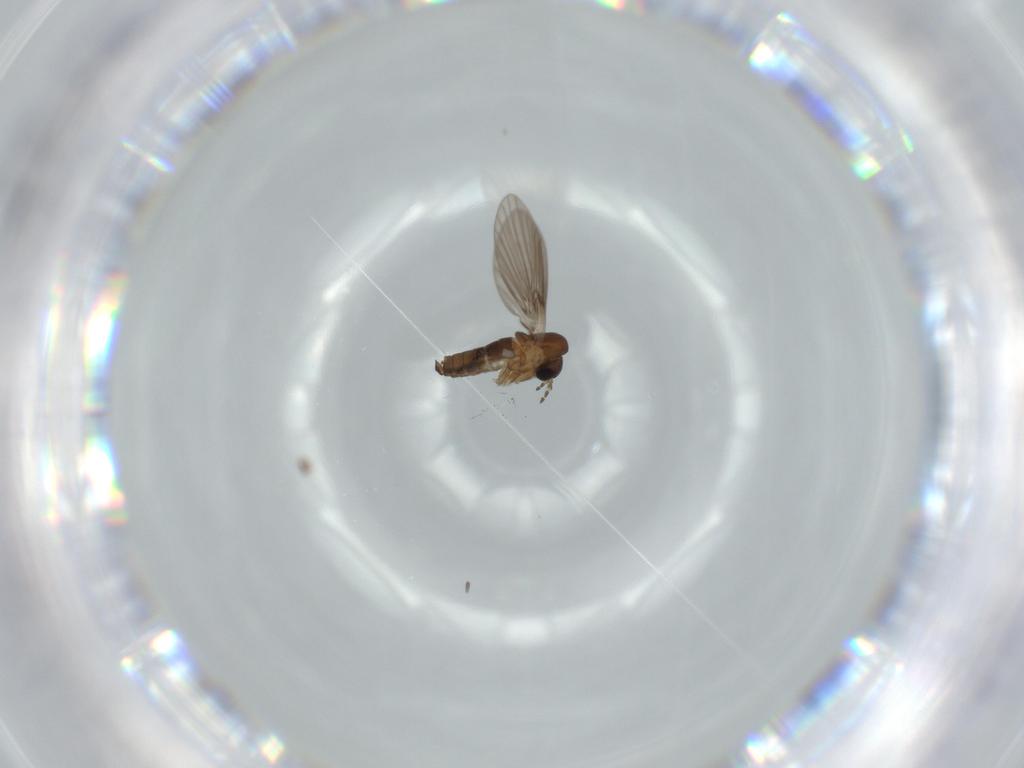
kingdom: Animalia
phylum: Arthropoda
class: Insecta
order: Diptera
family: Psychodidae
